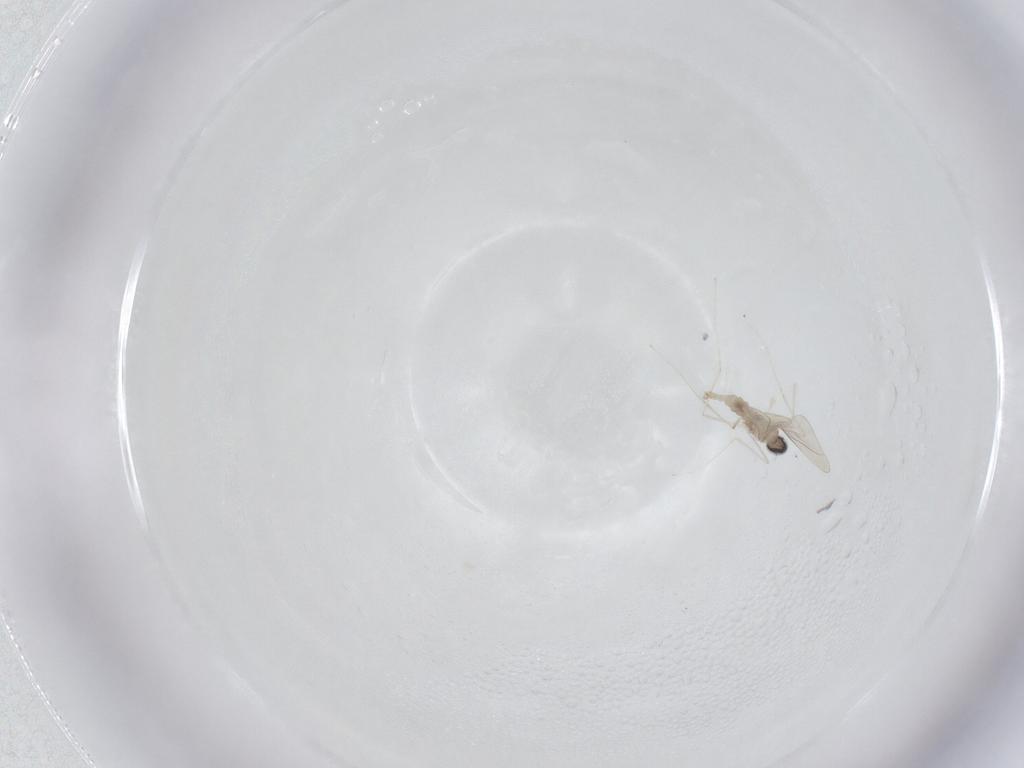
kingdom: Animalia
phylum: Arthropoda
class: Insecta
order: Diptera
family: Cecidomyiidae
